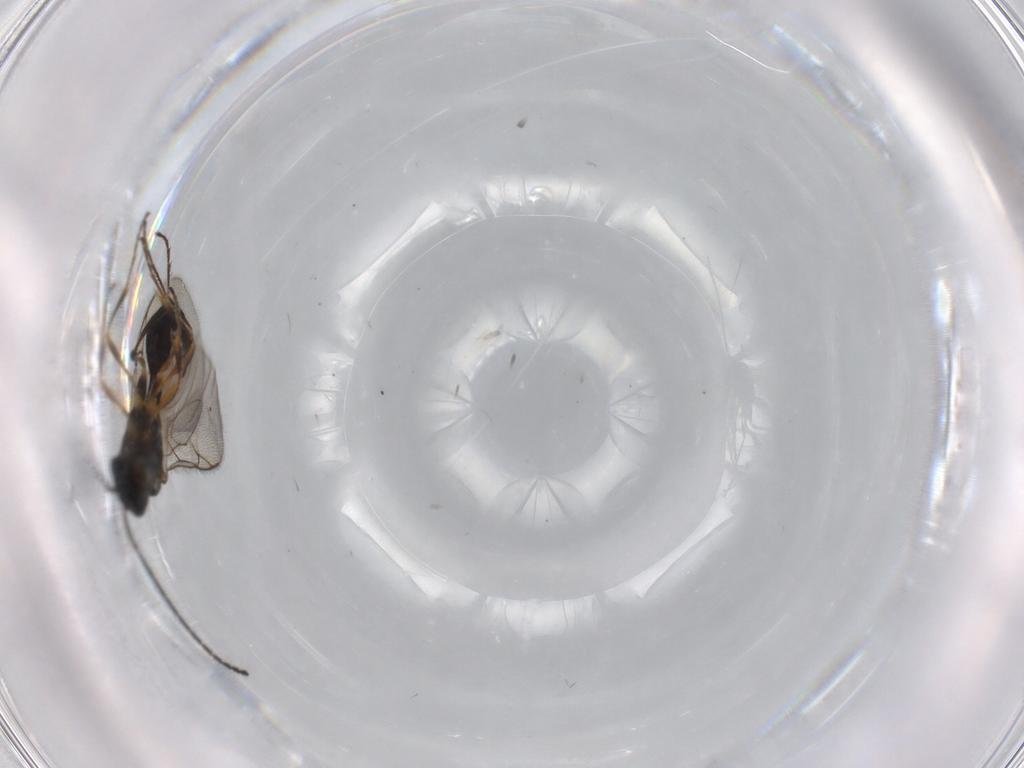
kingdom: Animalia
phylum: Arthropoda
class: Insecta
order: Hymenoptera
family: Diapriidae
